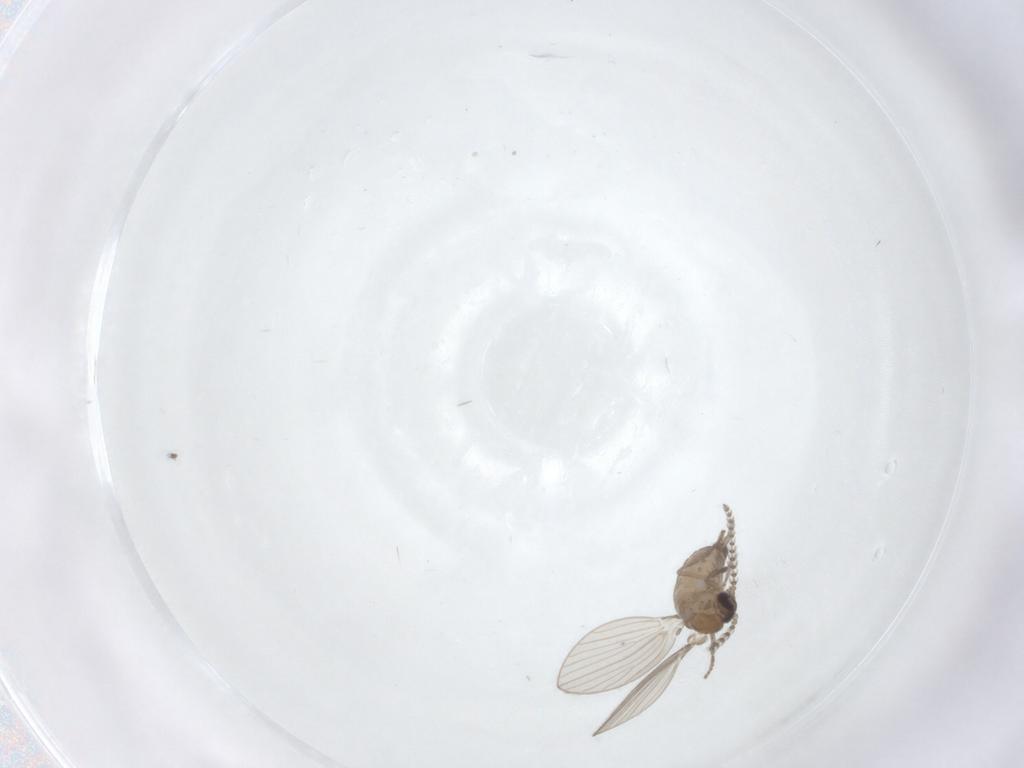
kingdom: Animalia
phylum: Arthropoda
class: Insecta
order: Diptera
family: Psychodidae
